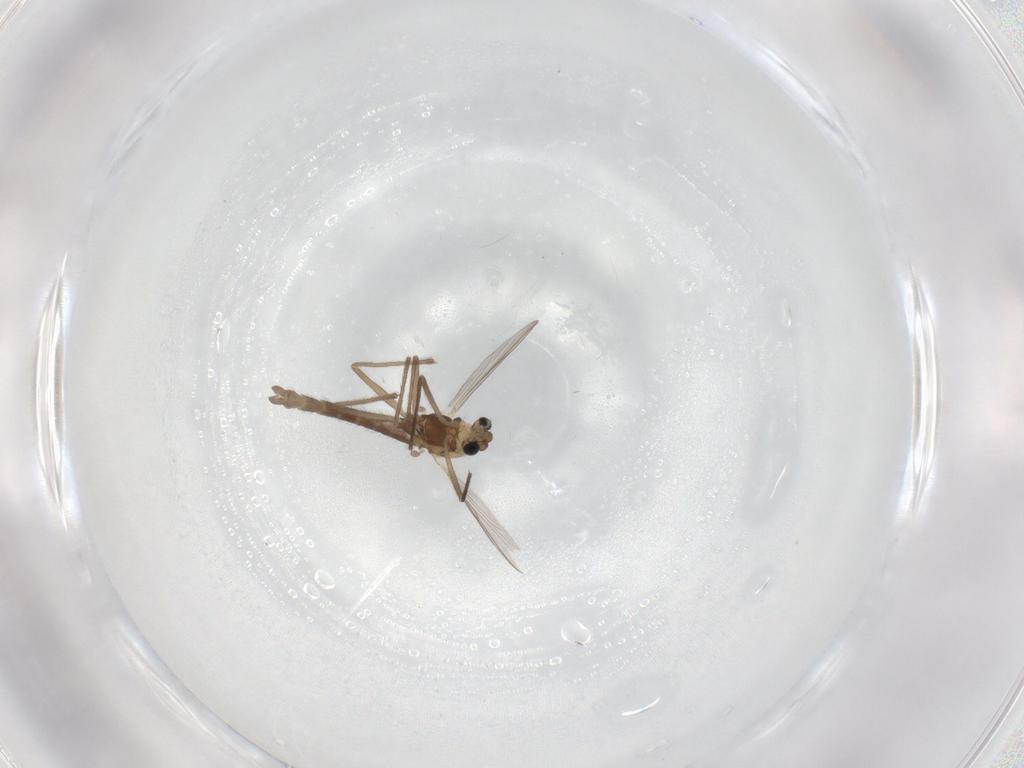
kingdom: Animalia
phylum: Arthropoda
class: Insecta
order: Diptera
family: Chironomidae
